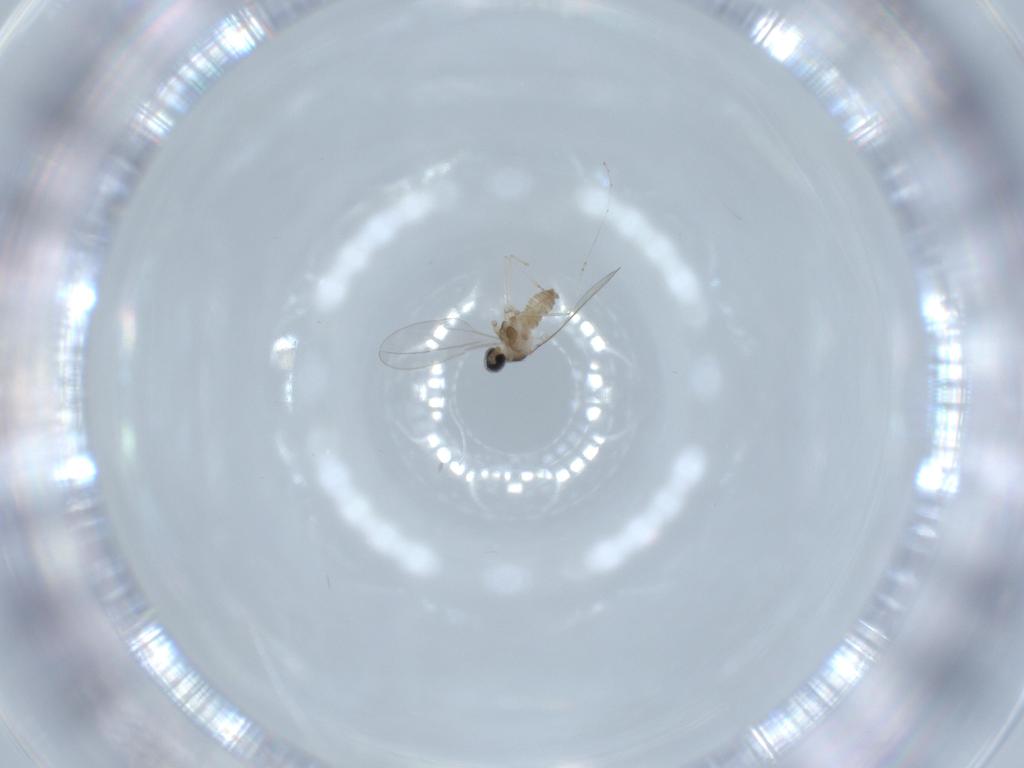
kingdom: Animalia
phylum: Arthropoda
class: Insecta
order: Diptera
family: Cecidomyiidae
